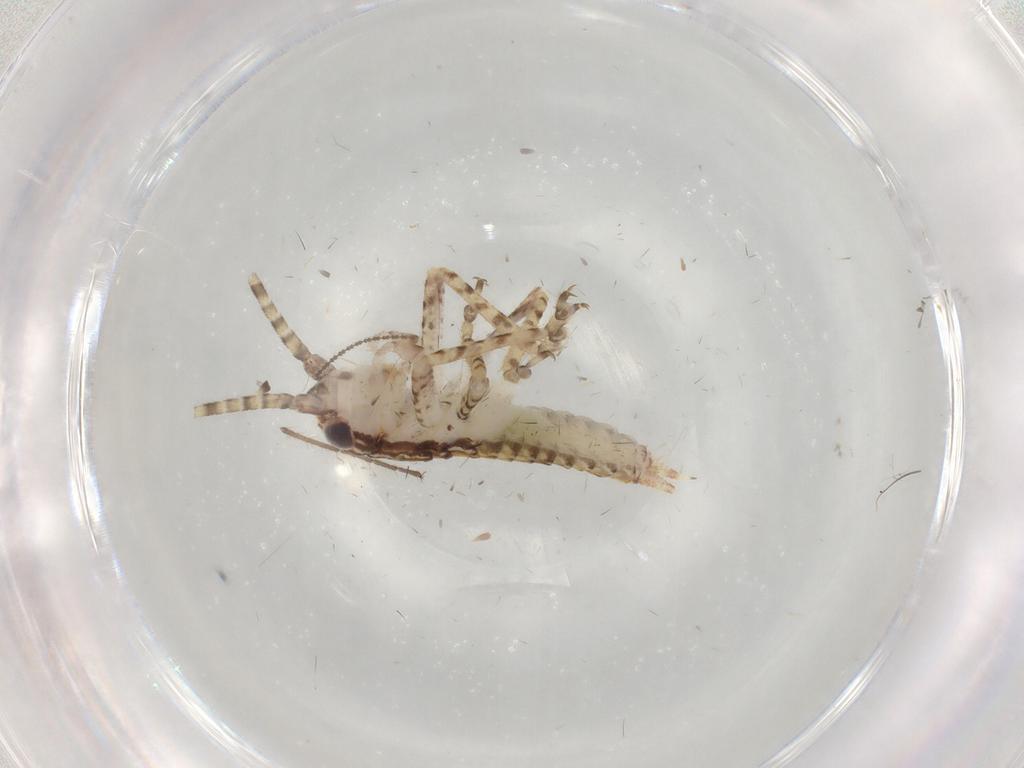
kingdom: Animalia
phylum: Arthropoda
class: Insecta
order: Orthoptera
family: Gryllidae
